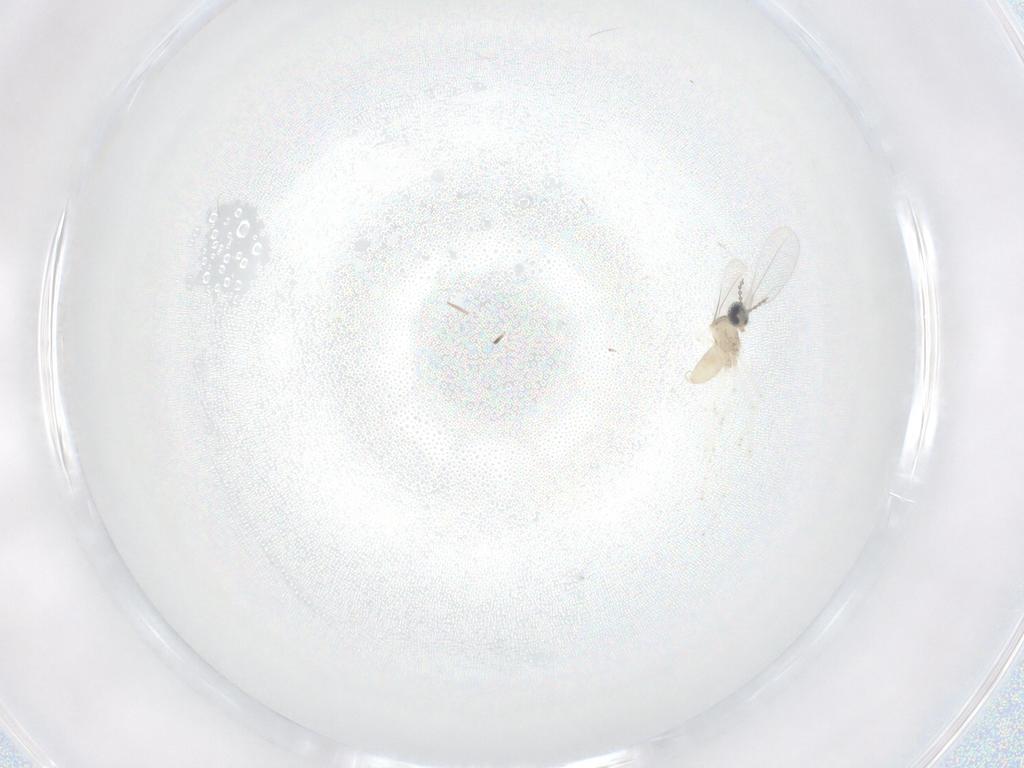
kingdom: Animalia
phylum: Arthropoda
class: Insecta
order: Diptera
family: Cecidomyiidae
